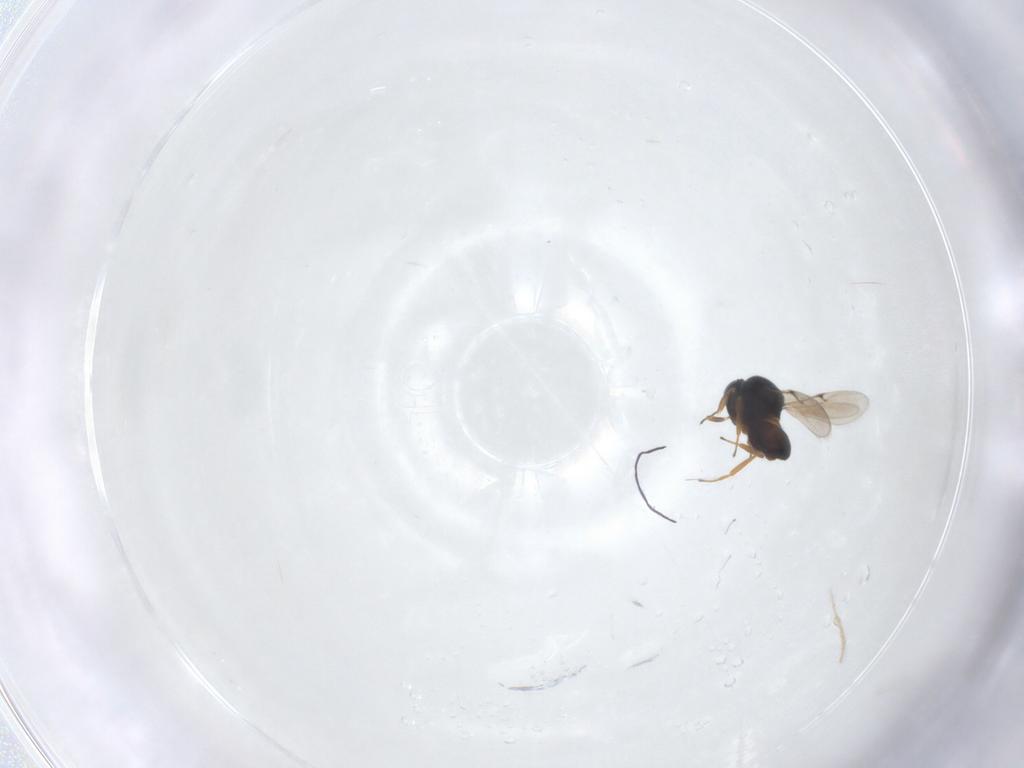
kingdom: Animalia
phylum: Arthropoda
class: Insecta
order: Hymenoptera
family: Scelionidae
